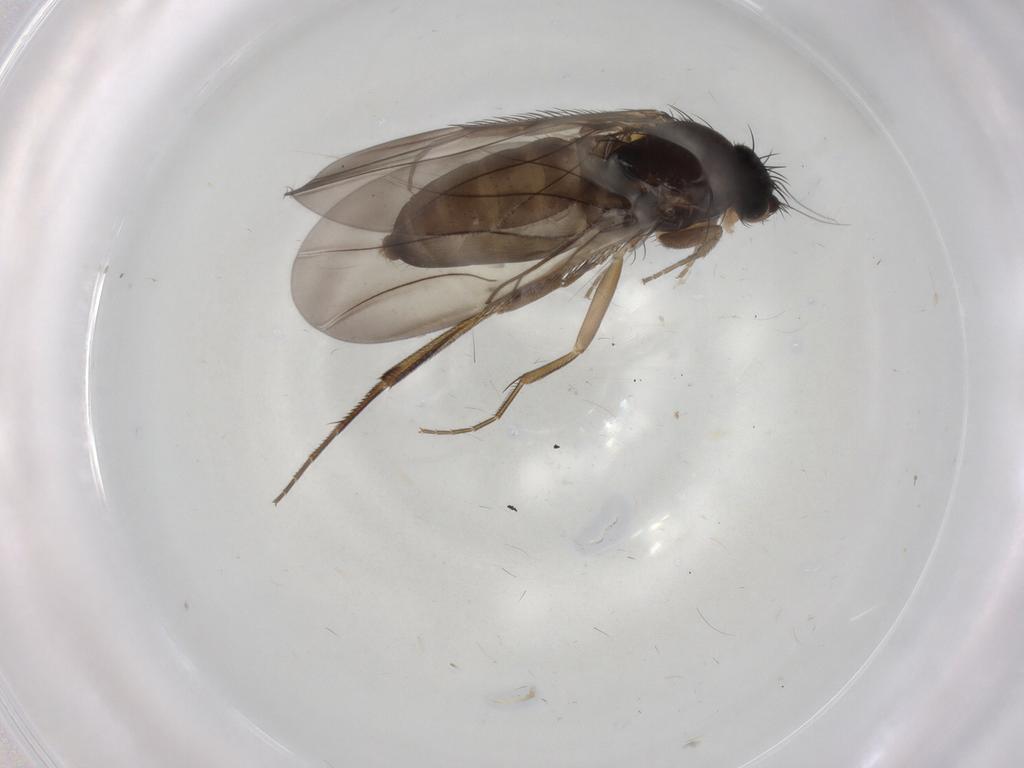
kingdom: Animalia
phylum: Arthropoda
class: Insecta
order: Diptera
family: Phoridae
